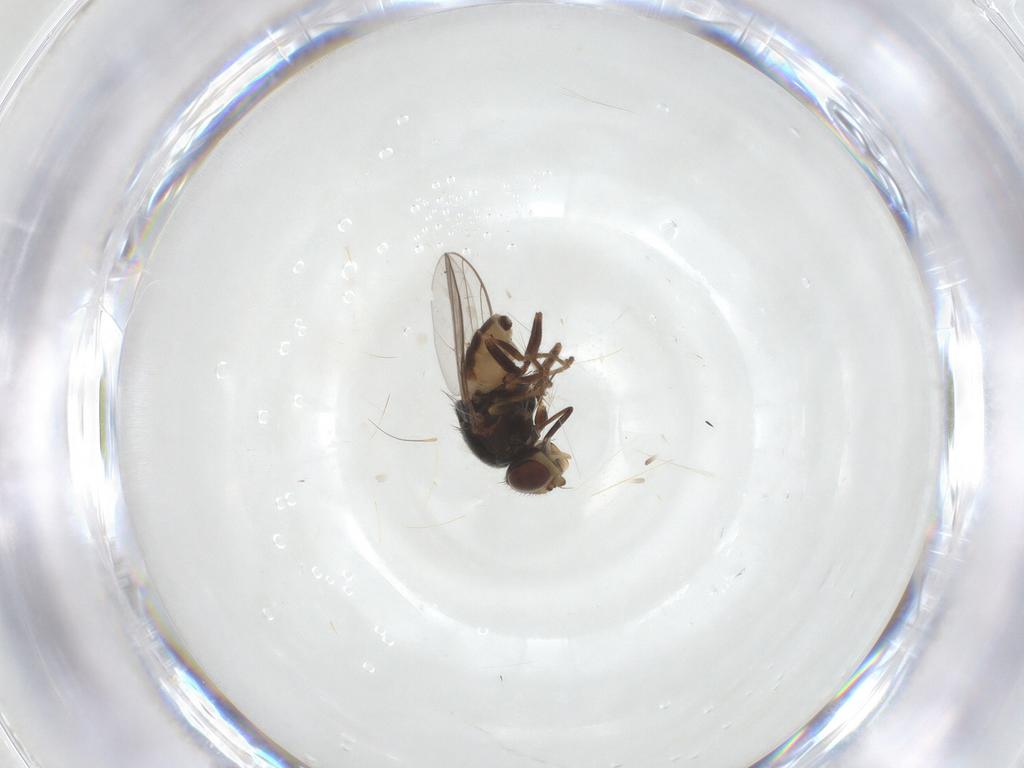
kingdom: Animalia
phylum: Arthropoda
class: Insecta
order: Diptera
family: Chloropidae
